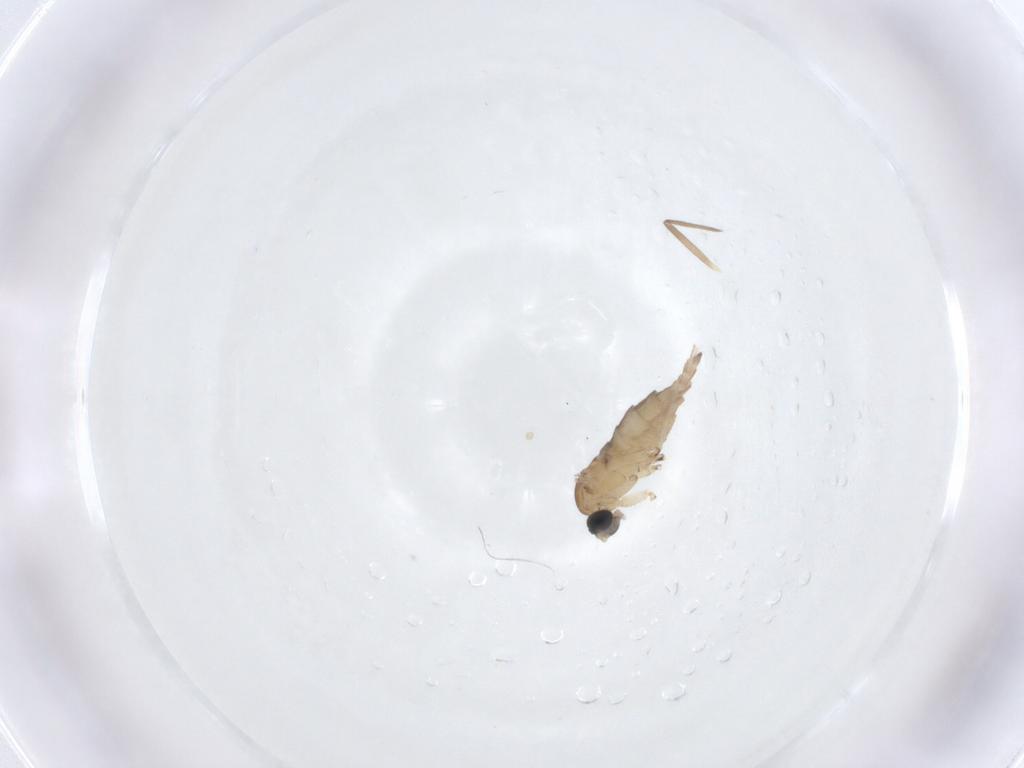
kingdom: Animalia
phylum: Arthropoda
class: Insecta
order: Diptera
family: Sciaridae
